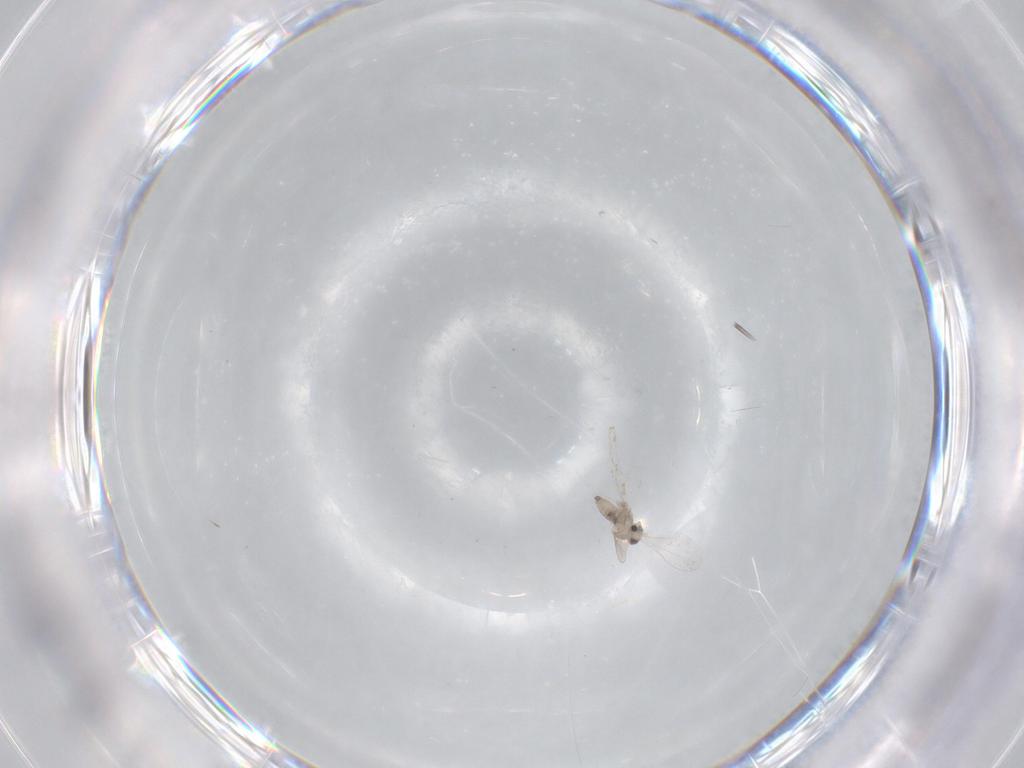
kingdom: Animalia
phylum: Arthropoda
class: Insecta
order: Diptera
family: Cecidomyiidae
